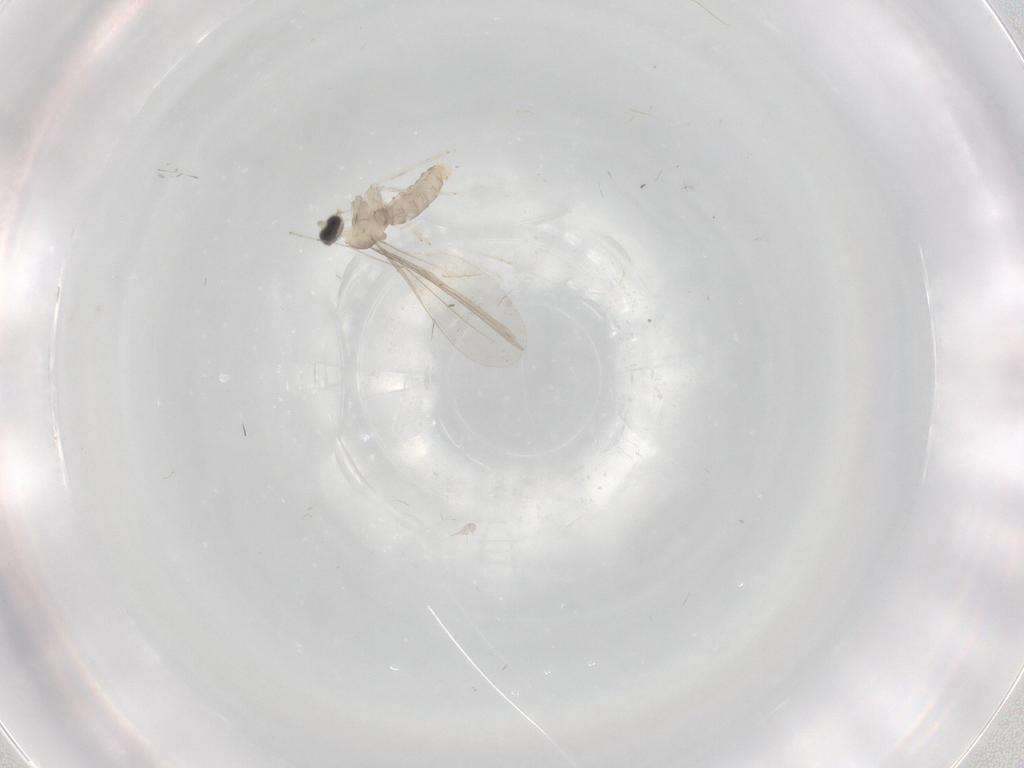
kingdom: Animalia
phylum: Arthropoda
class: Insecta
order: Diptera
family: Cecidomyiidae
